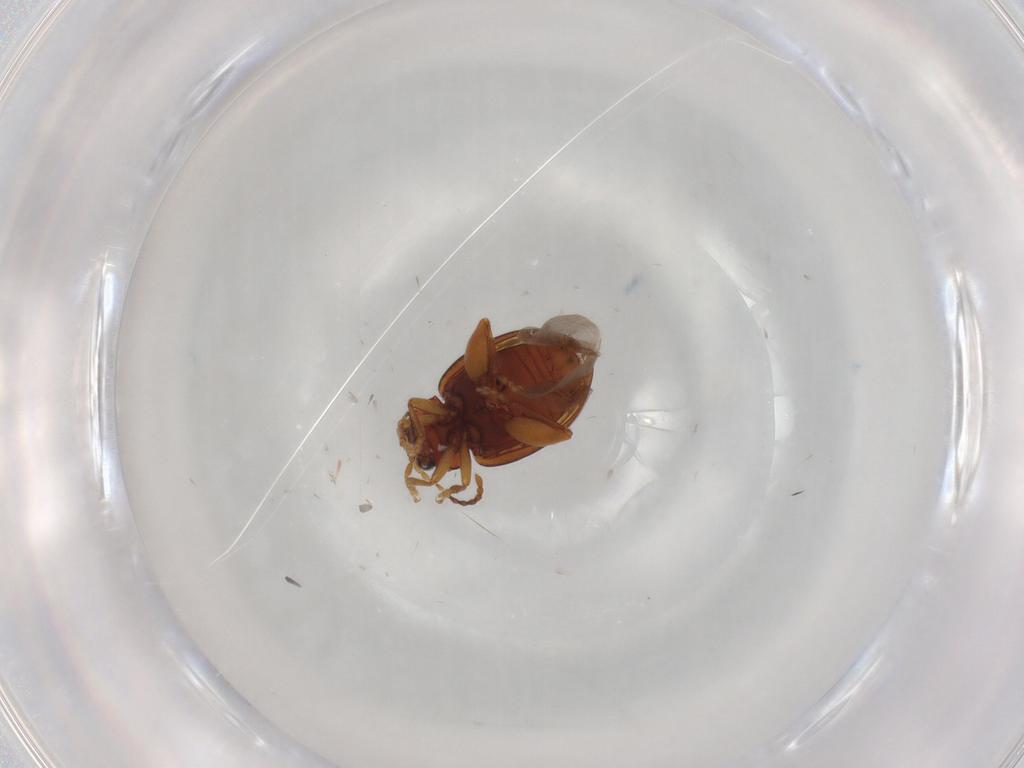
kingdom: Animalia
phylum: Arthropoda
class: Insecta
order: Coleoptera
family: Chrysomelidae
